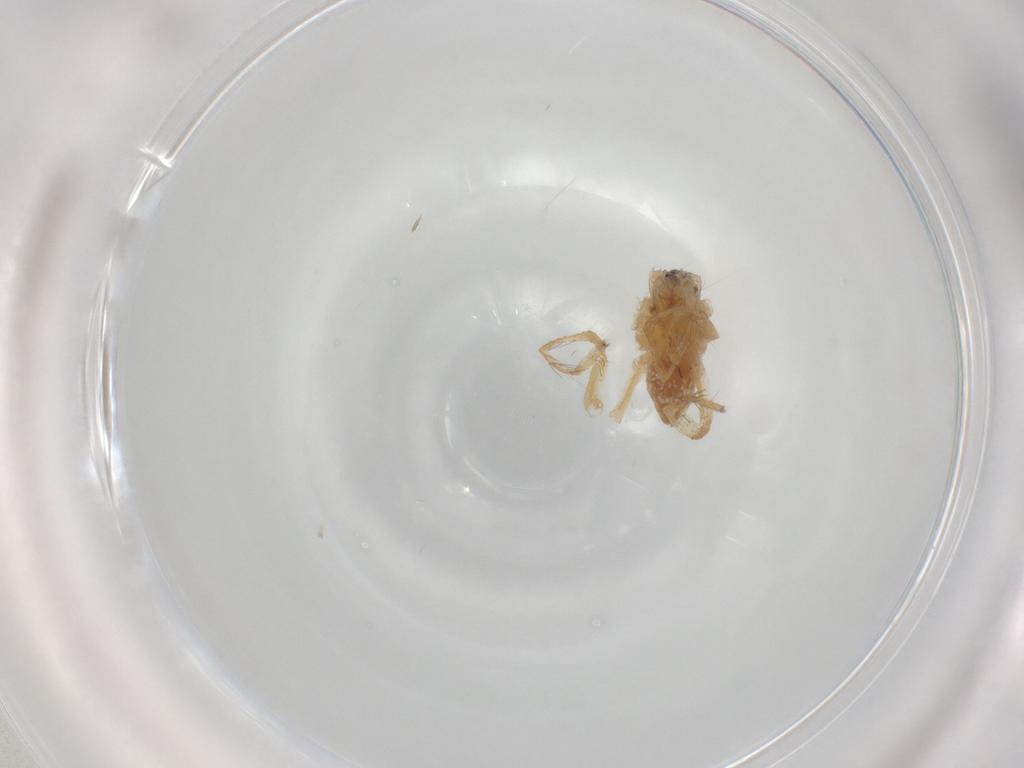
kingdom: Animalia
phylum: Arthropoda
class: Arachnida
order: Araneae
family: Pisauridae
